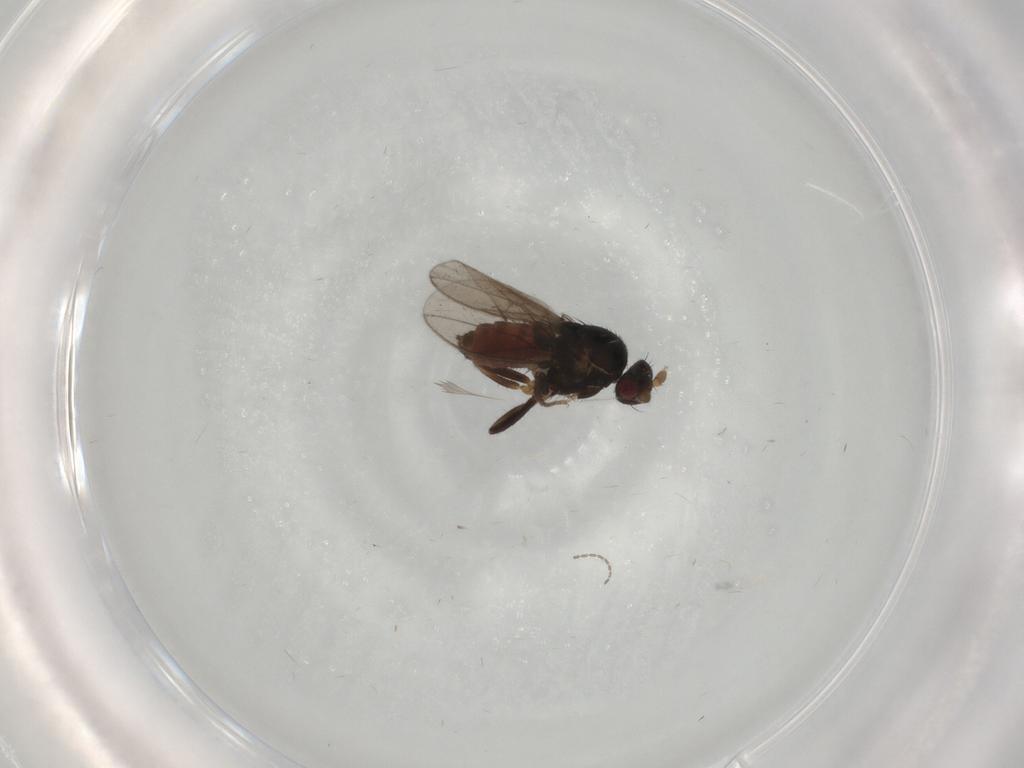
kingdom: Animalia
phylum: Arthropoda
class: Insecta
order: Diptera
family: Sphaeroceridae
